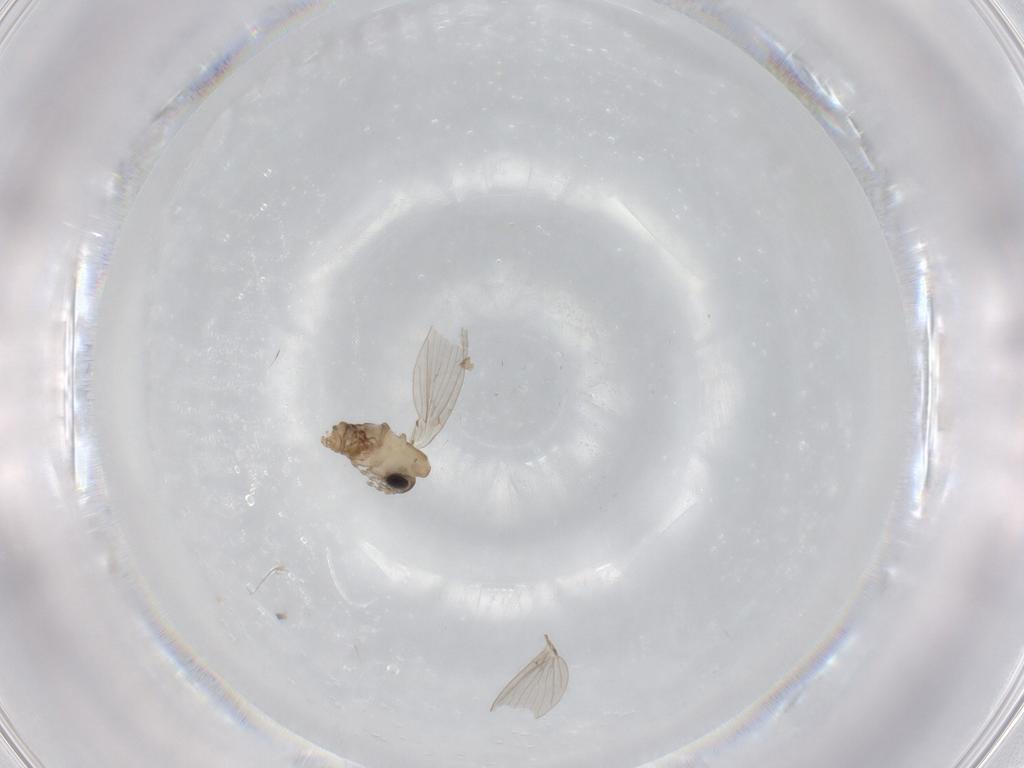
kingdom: Animalia
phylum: Arthropoda
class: Insecta
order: Diptera
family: Psychodidae
